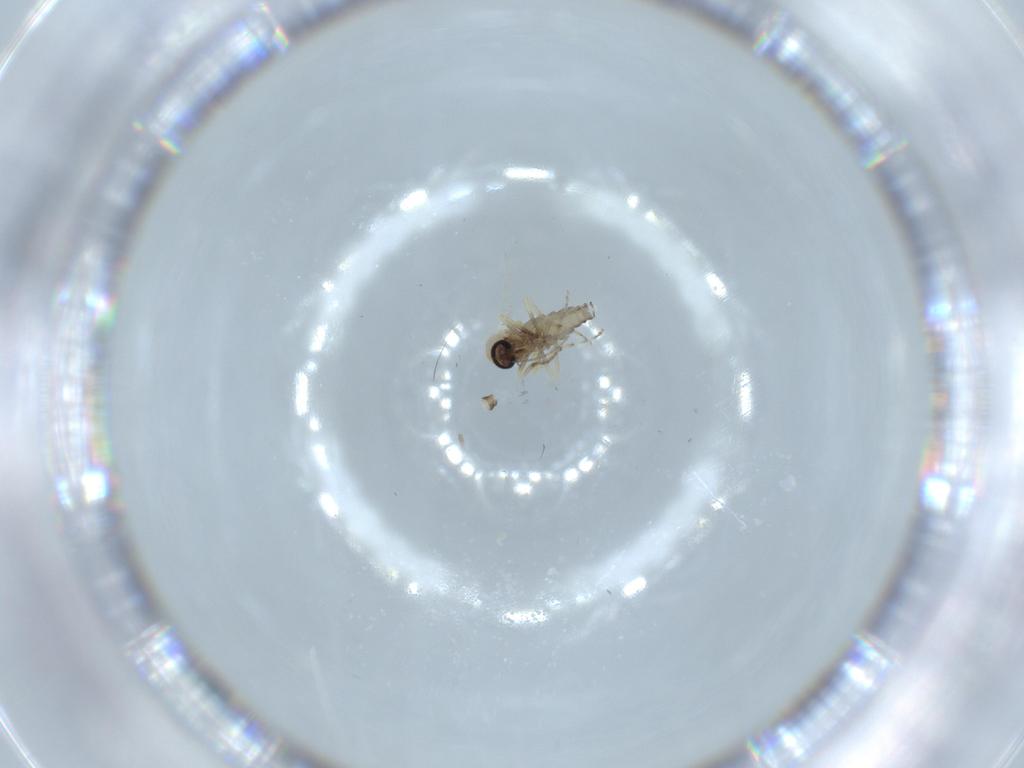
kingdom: Animalia
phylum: Arthropoda
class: Insecta
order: Diptera
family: Ceratopogonidae
